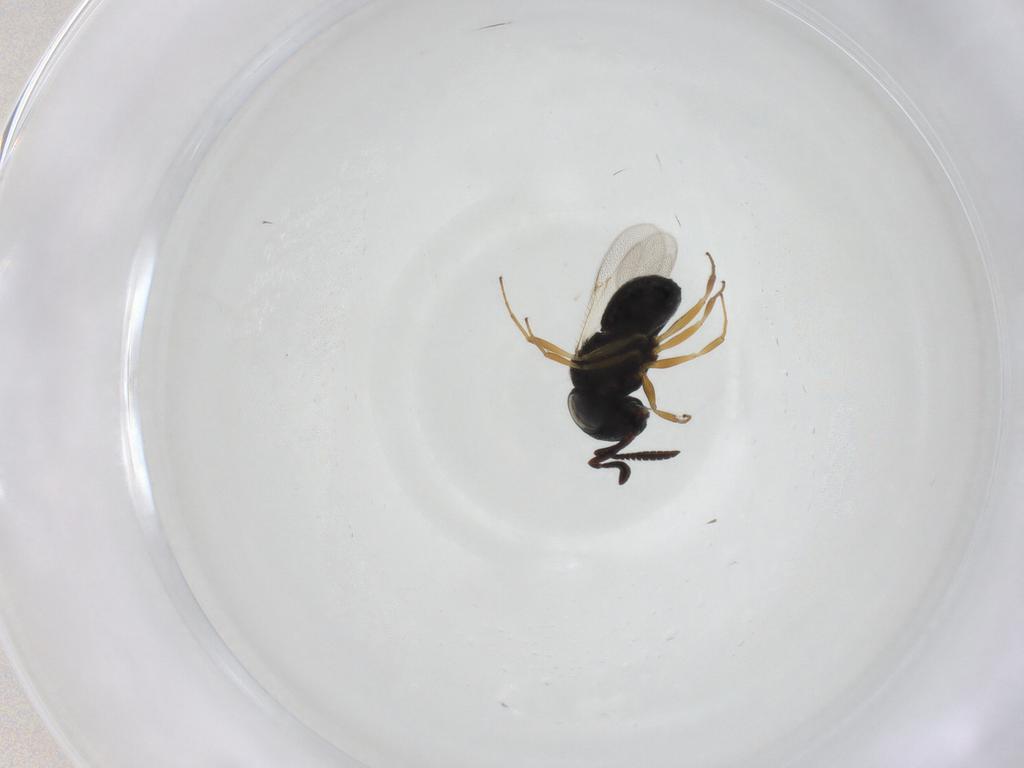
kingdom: Animalia
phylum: Arthropoda
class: Insecta
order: Hymenoptera
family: Scelionidae
